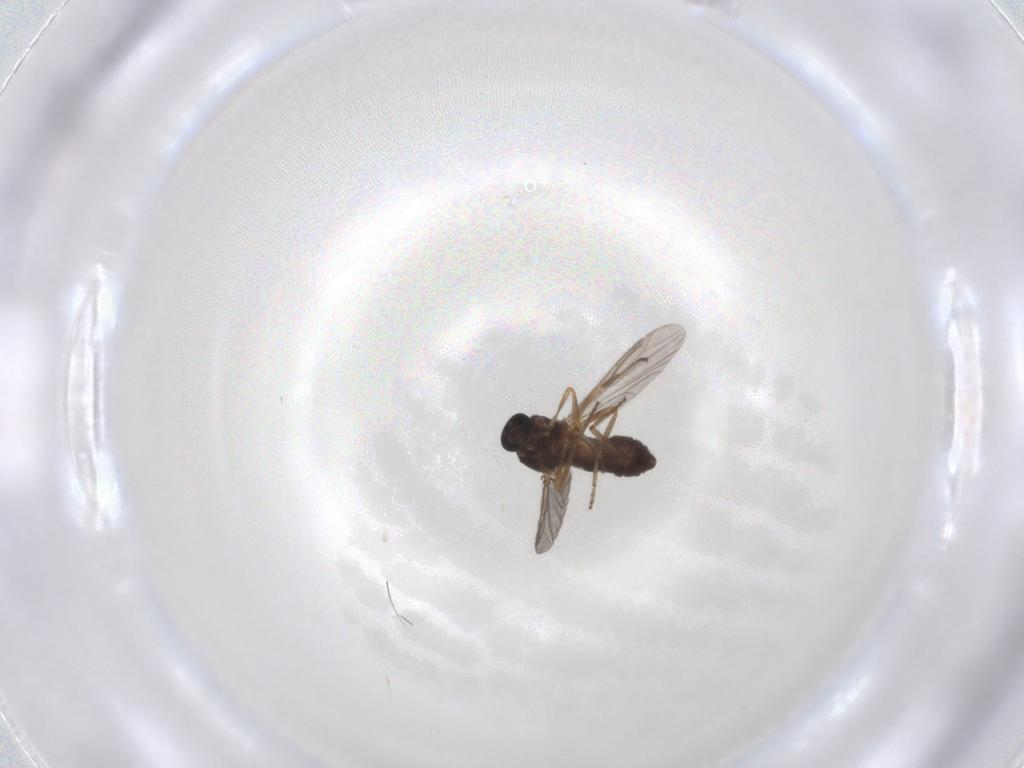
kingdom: Animalia
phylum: Arthropoda
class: Insecta
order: Diptera
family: Ceratopogonidae
